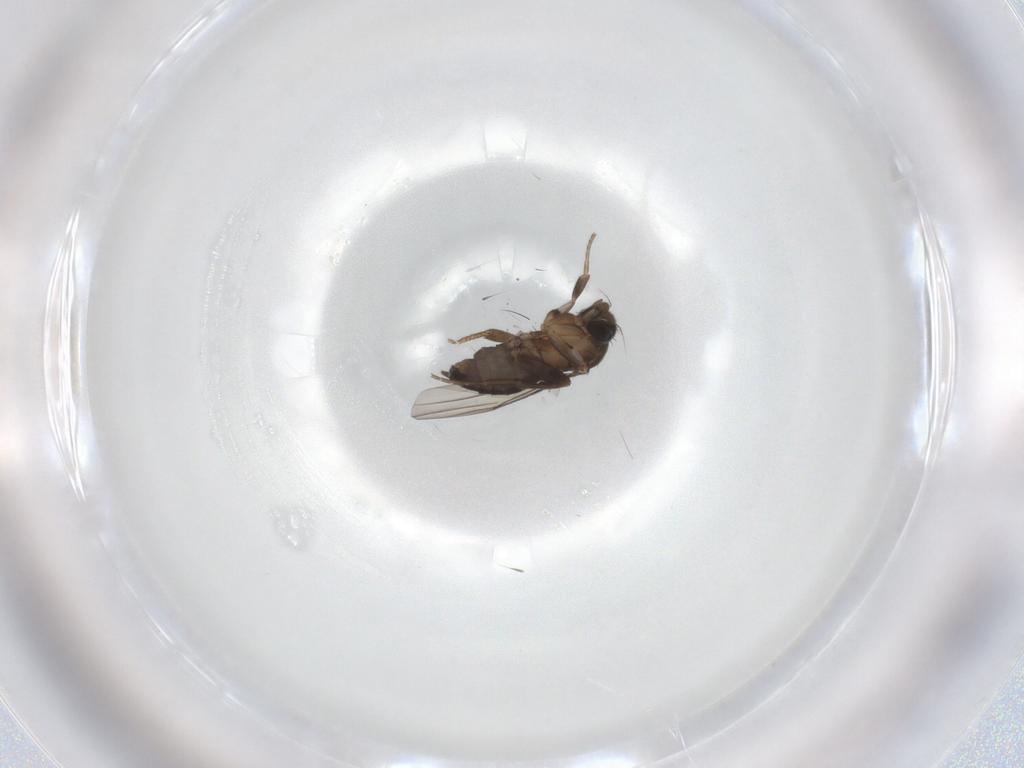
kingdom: Animalia
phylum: Arthropoda
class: Insecta
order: Diptera
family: Phoridae
